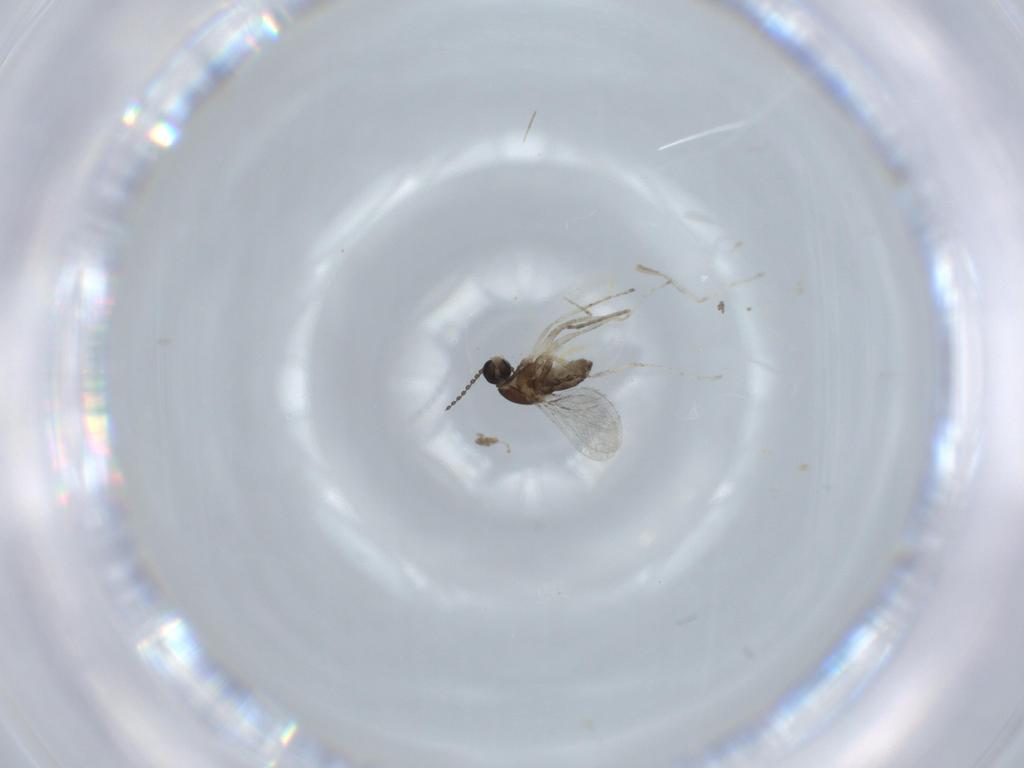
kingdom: Animalia
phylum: Arthropoda
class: Insecta
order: Diptera
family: Cecidomyiidae
